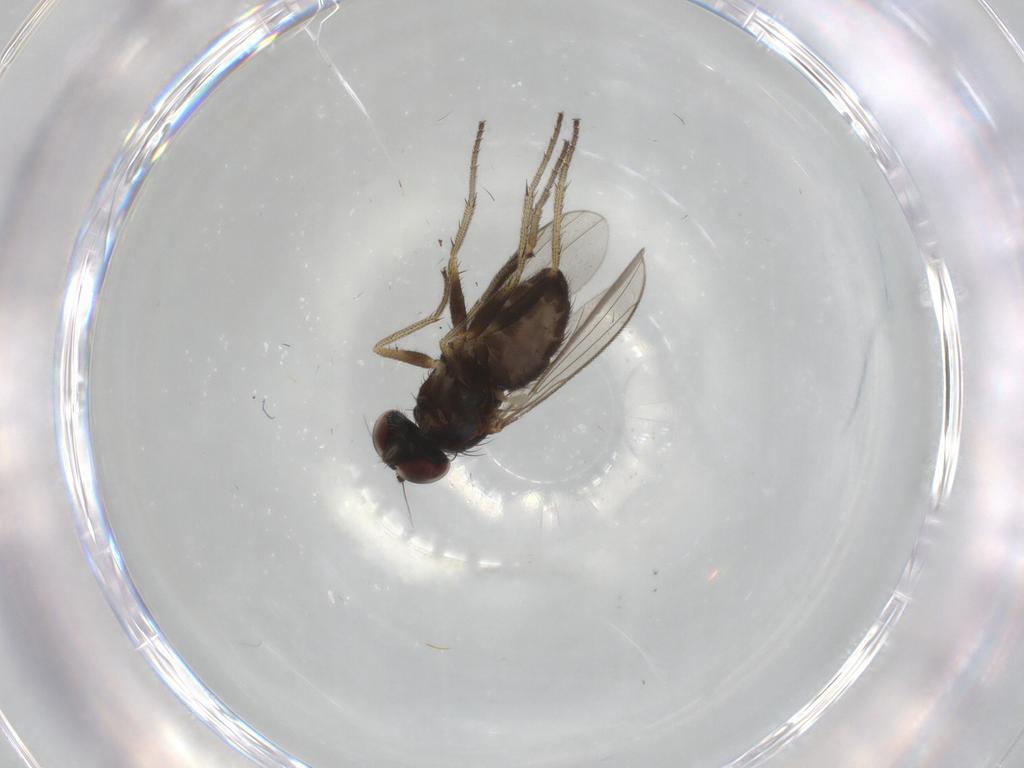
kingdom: Animalia
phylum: Arthropoda
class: Insecta
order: Diptera
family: Dolichopodidae
